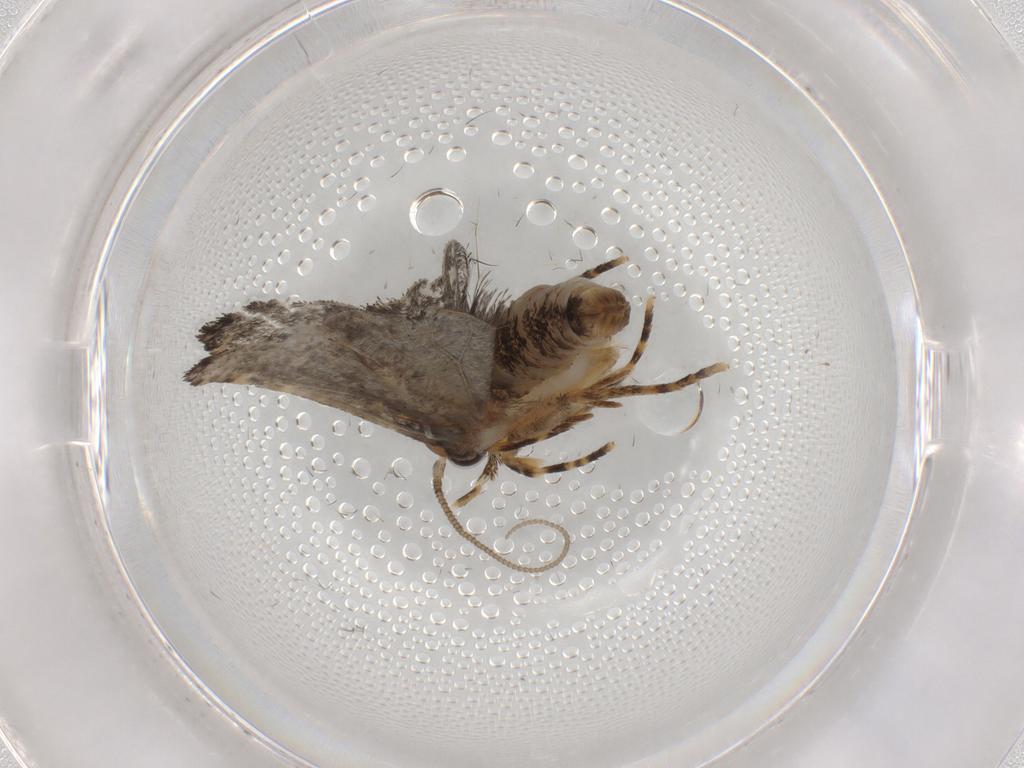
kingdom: Animalia
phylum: Arthropoda
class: Insecta
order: Lepidoptera
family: Tineidae
